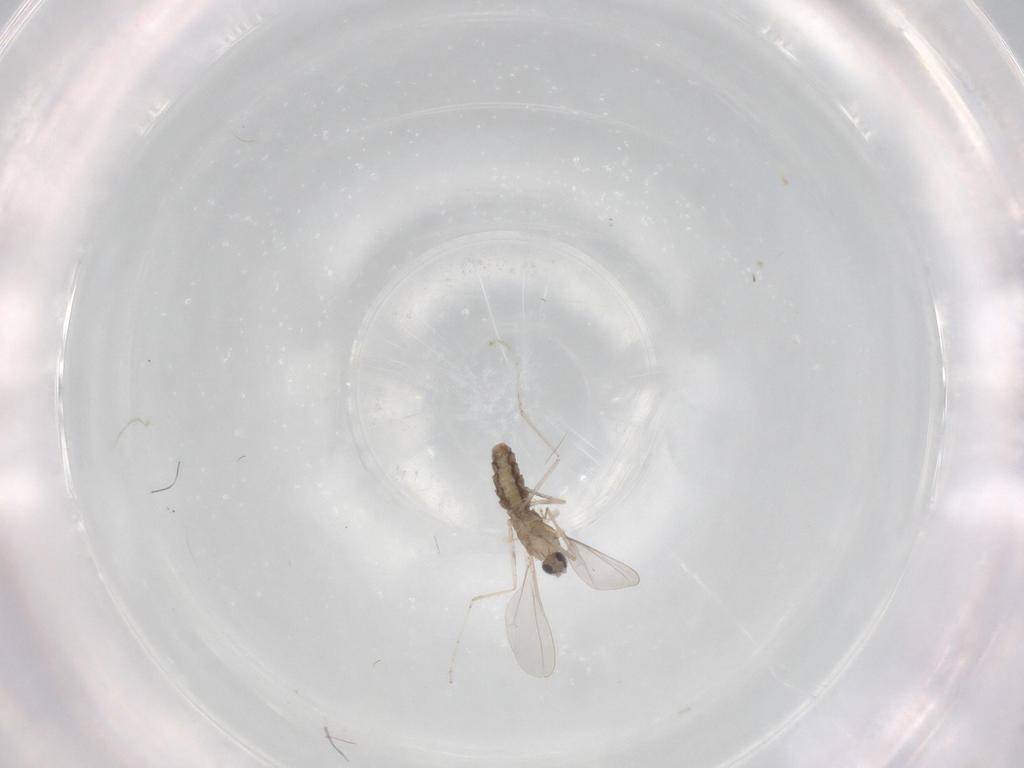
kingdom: Animalia
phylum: Arthropoda
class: Insecta
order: Diptera
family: Cecidomyiidae
